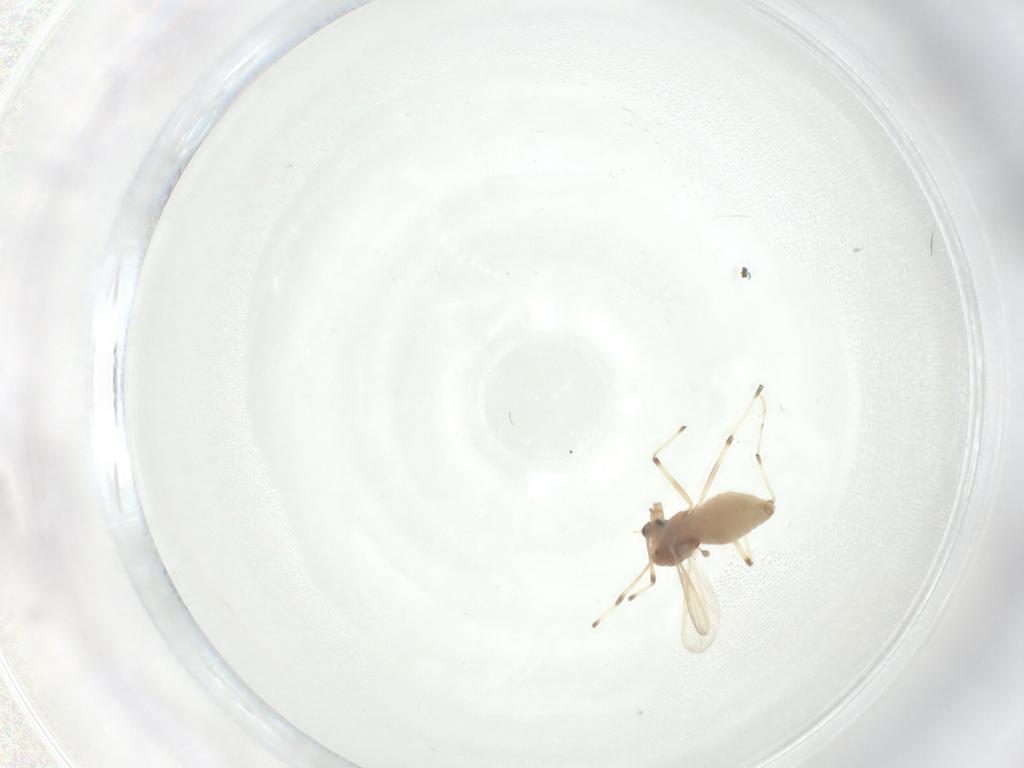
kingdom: Animalia
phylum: Arthropoda
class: Insecta
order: Diptera
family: Chironomidae
